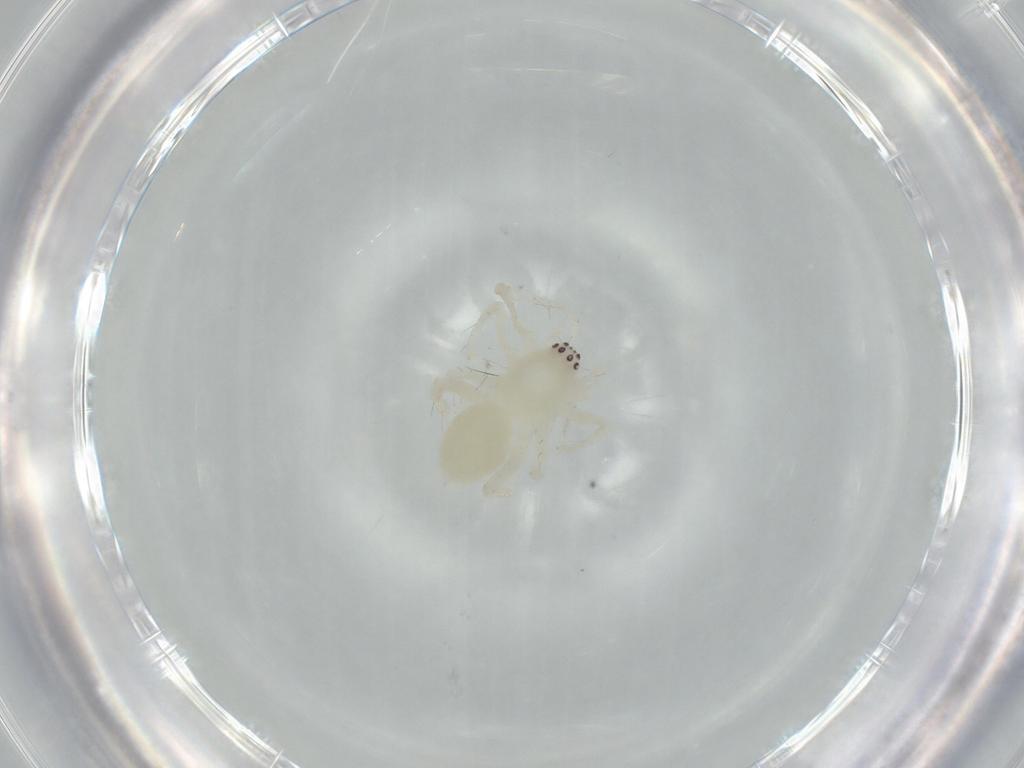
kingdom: Animalia
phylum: Arthropoda
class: Arachnida
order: Araneae
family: Anyphaenidae
